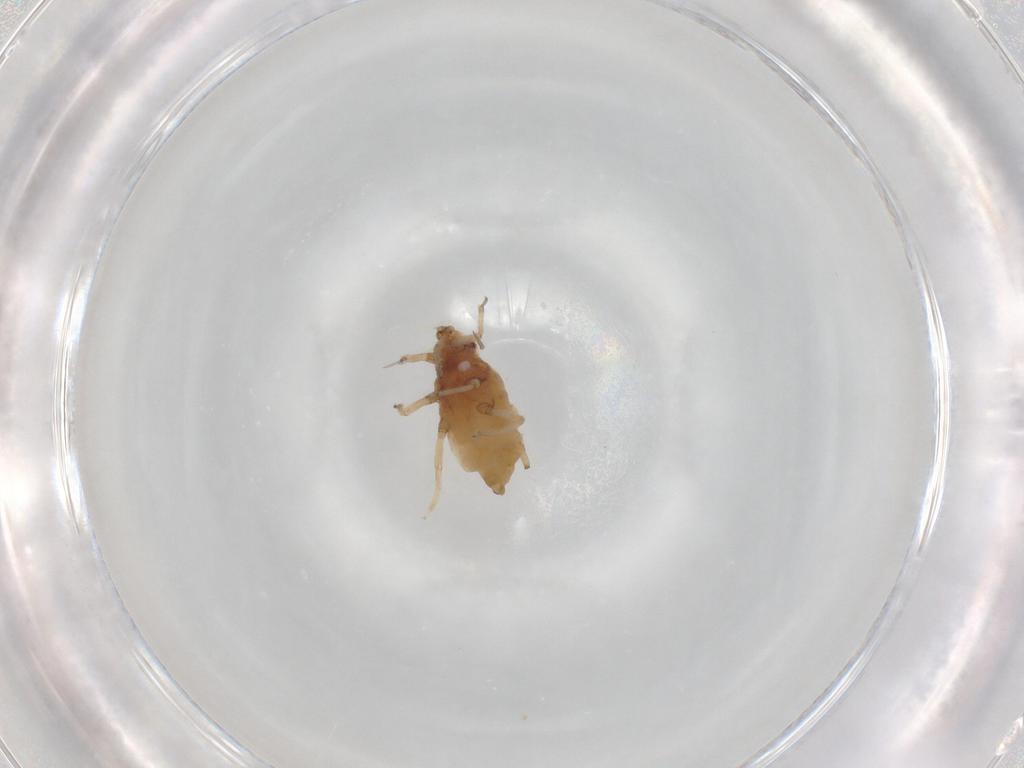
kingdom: Animalia
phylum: Arthropoda
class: Insecta
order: Hemiptera
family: Aphididae
